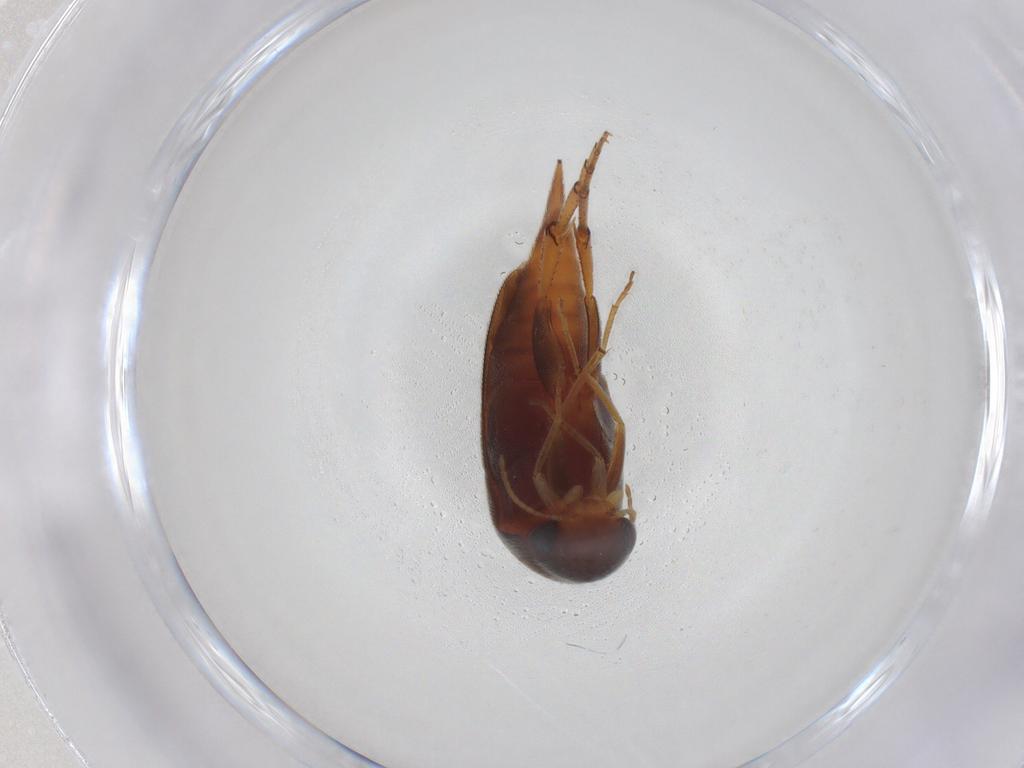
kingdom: Animalia
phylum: Arthropoda
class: Insecta
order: Coleoptera
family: Mordellidae
